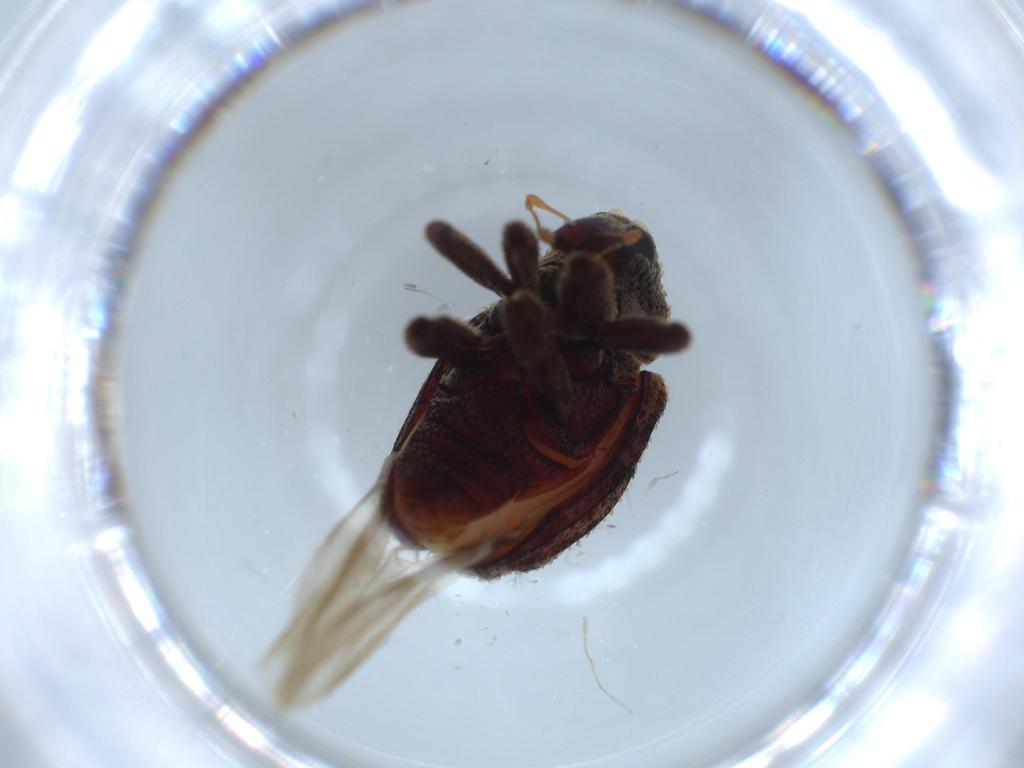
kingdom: Animalia
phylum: Arthropoda
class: Insecta
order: Coleoptera
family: Chrysomelidae
